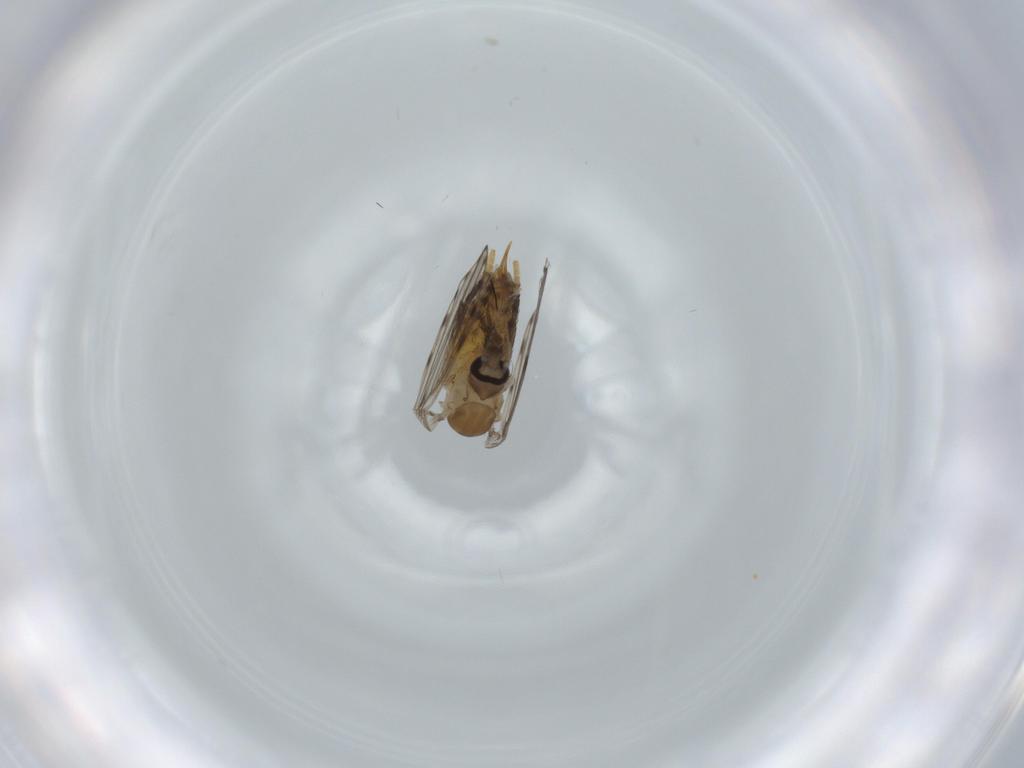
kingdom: Animalia
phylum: Arthropoda
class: Insecta
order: Diptera
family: Psychodidae
